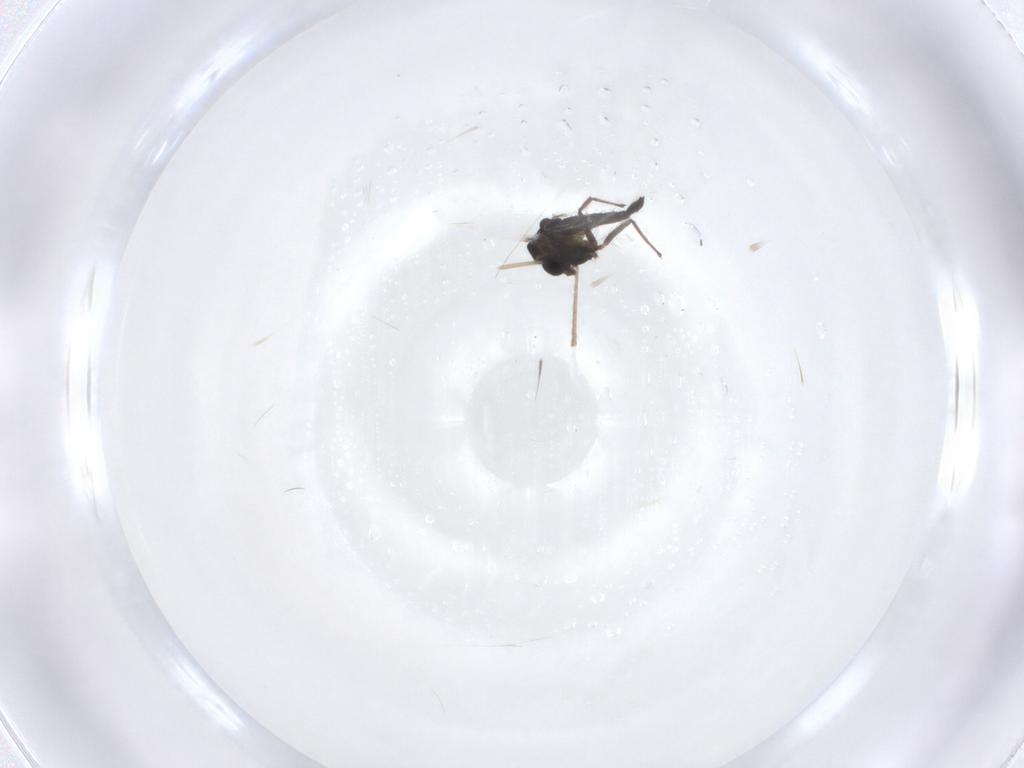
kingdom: Animalia
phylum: Arthropoda
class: Insecta
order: Diptera
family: Chironomidae
